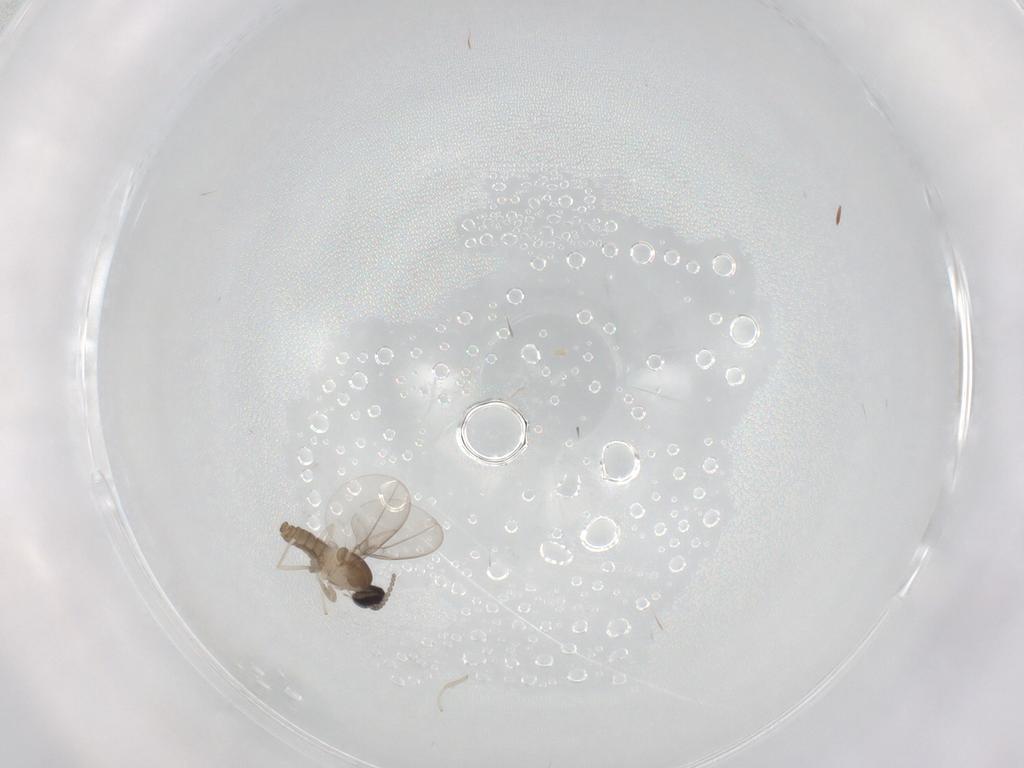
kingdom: Animalia
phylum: Arthropoda
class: Insecta
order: Diptera
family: Cecidomyiidae
